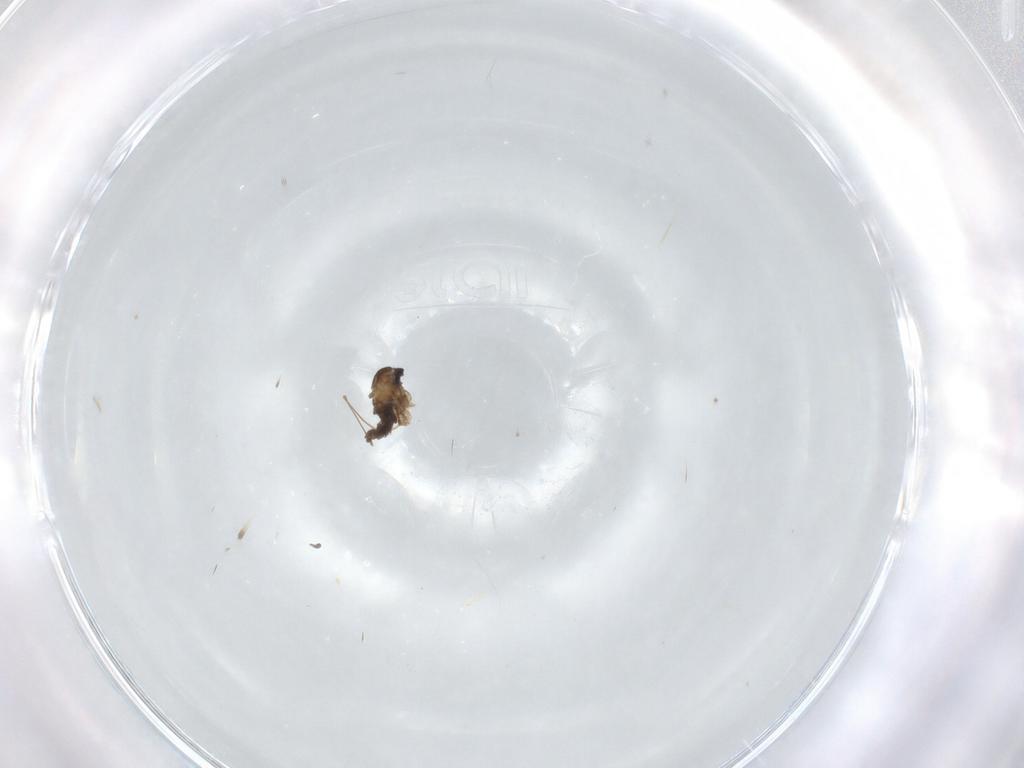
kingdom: Animalia
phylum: Arthropoda
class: Insecta
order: Diptera
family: Cecidomyiidae
